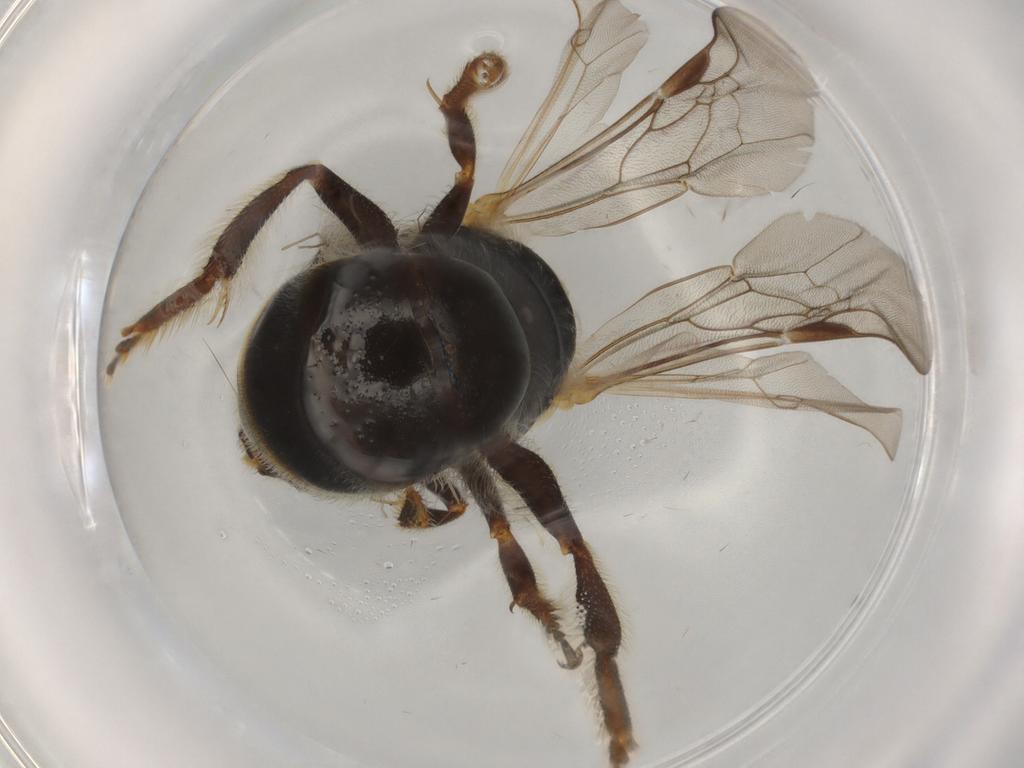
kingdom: Animalia
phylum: Arthropoda
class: Insecta
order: Hymenoptera
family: Halictidae
